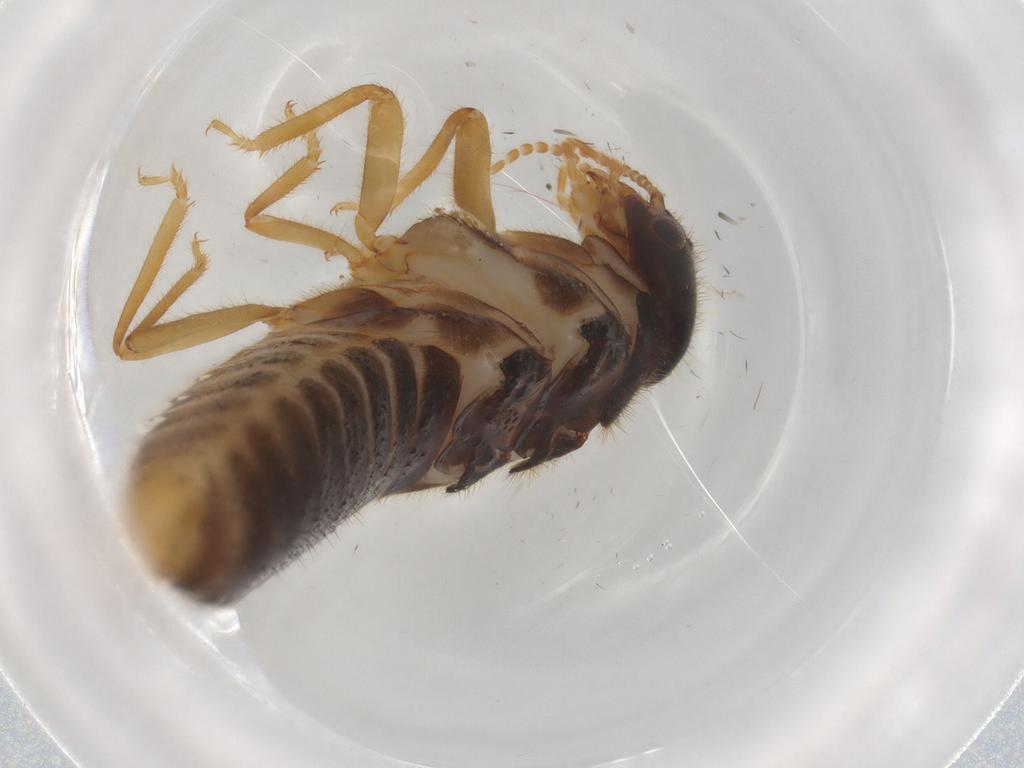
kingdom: Animalia
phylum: Arthropoda
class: Insecta
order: Blattodea
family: Termitidae
